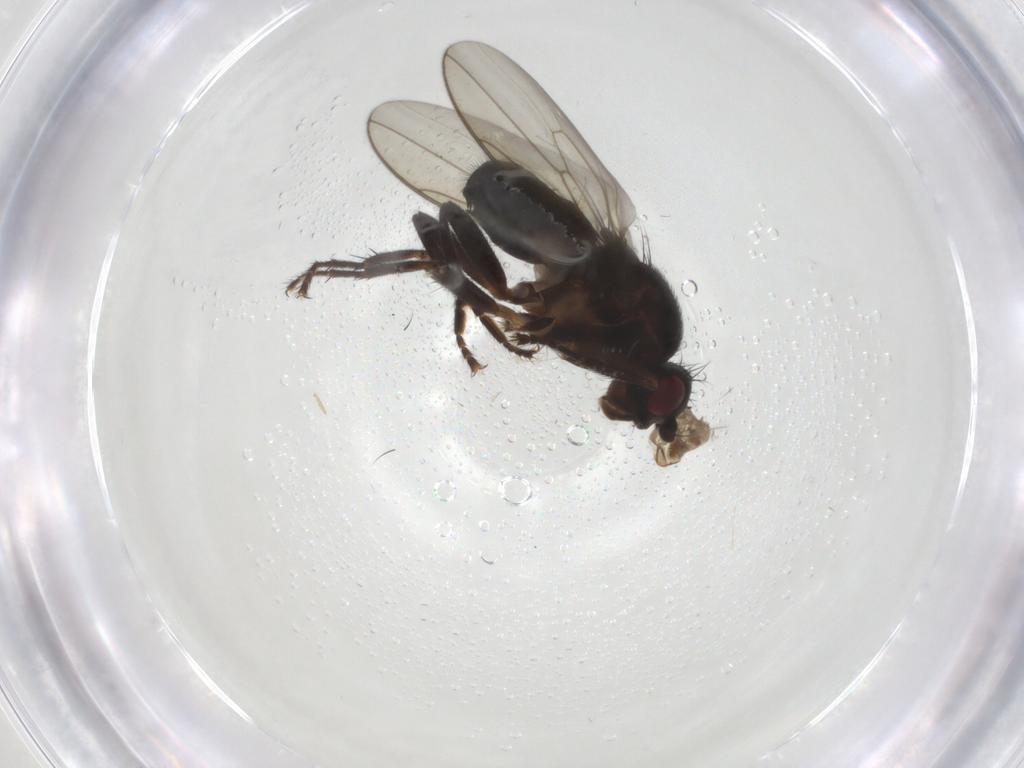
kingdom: Animalia
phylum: Arthropoda
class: Insecta
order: Diptera
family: Sphaeroceridae
